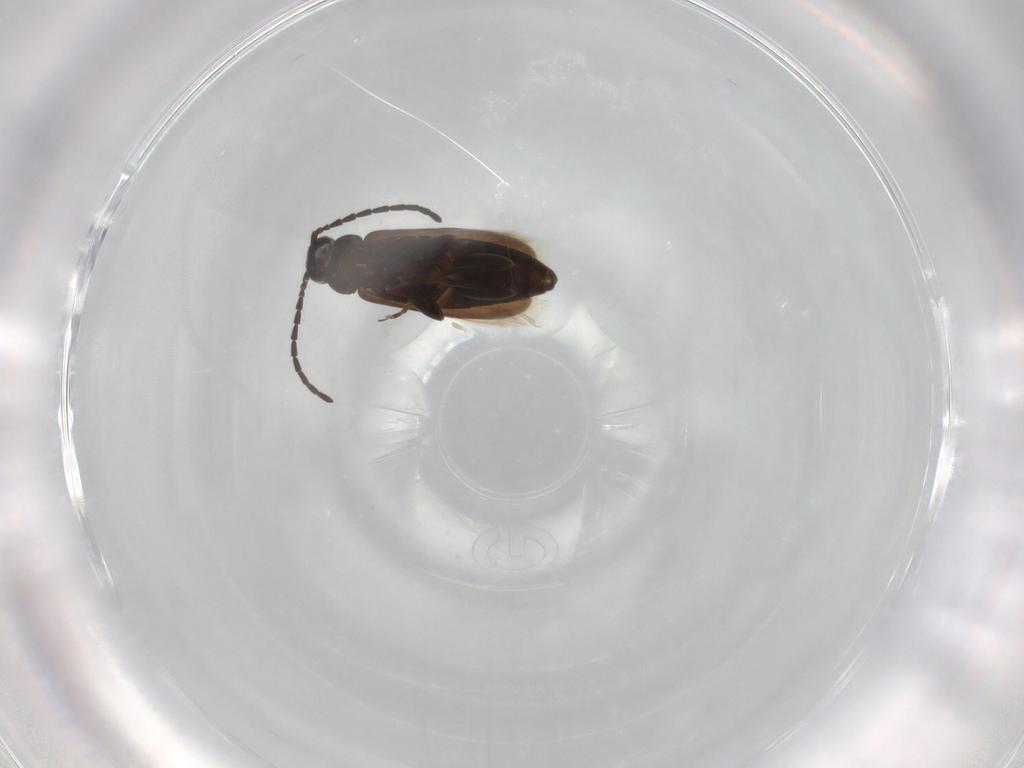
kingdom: Animalia
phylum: Arthropoda
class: Insecta
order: Coleoptera
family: Scraptiidae
